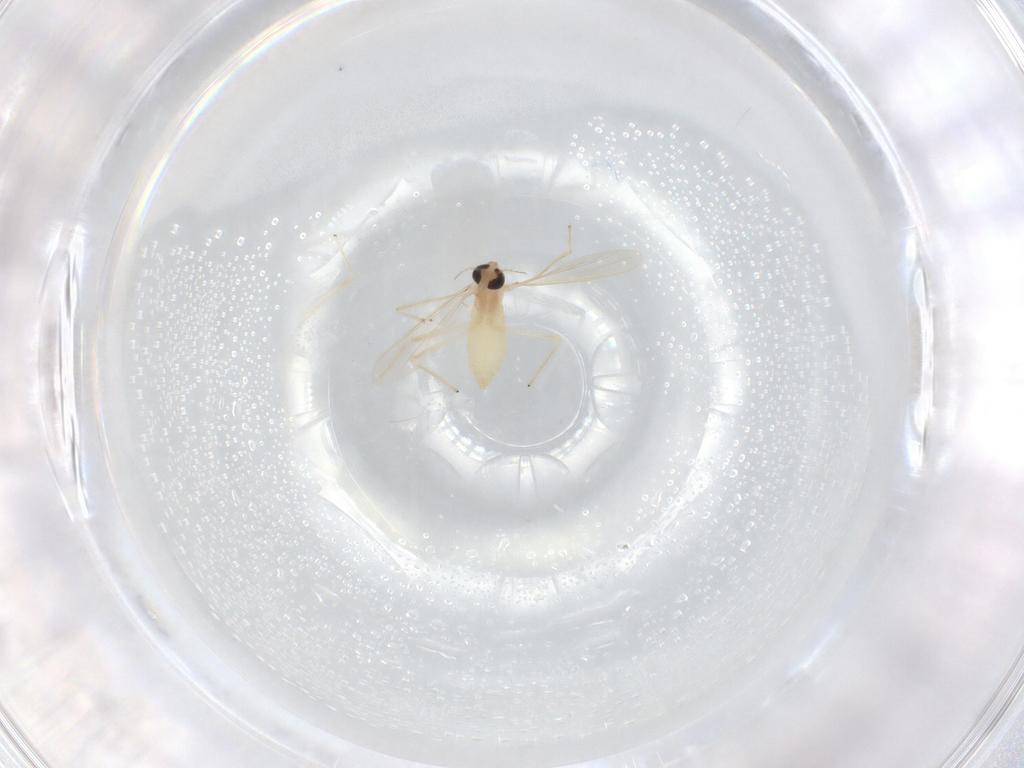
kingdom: Animalia
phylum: Arthropoda
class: Insecta
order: Diptera
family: Chironomidae
